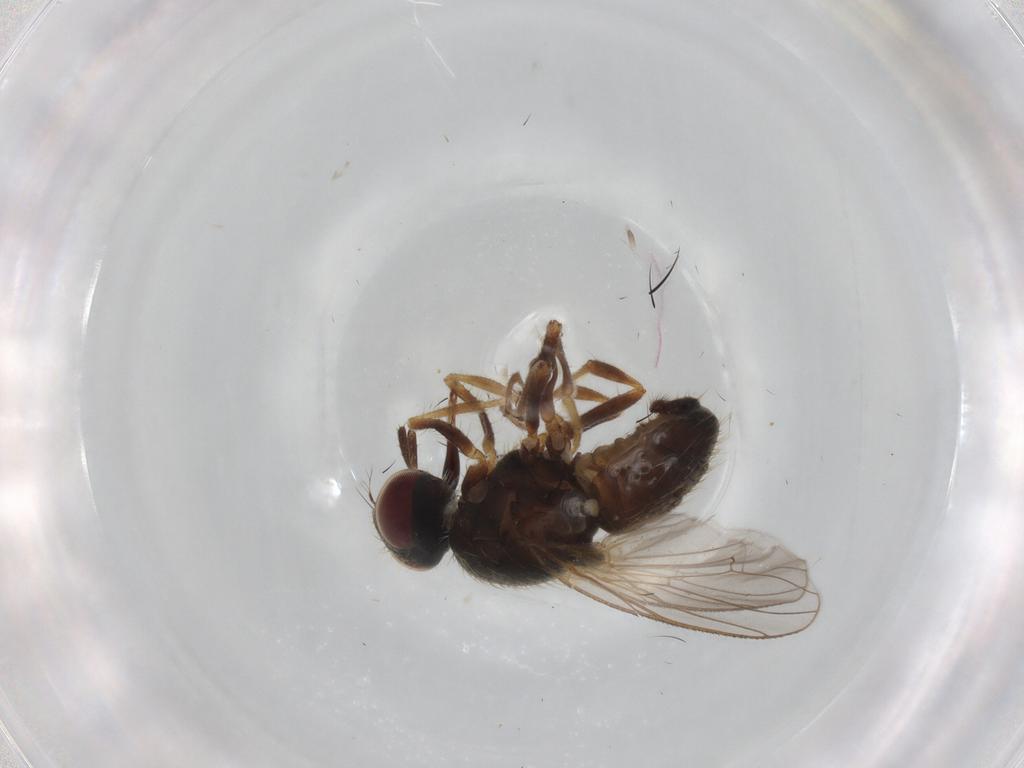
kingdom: Animalia
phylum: Arthropoda
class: Insecta
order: Diptera
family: Muscidae
